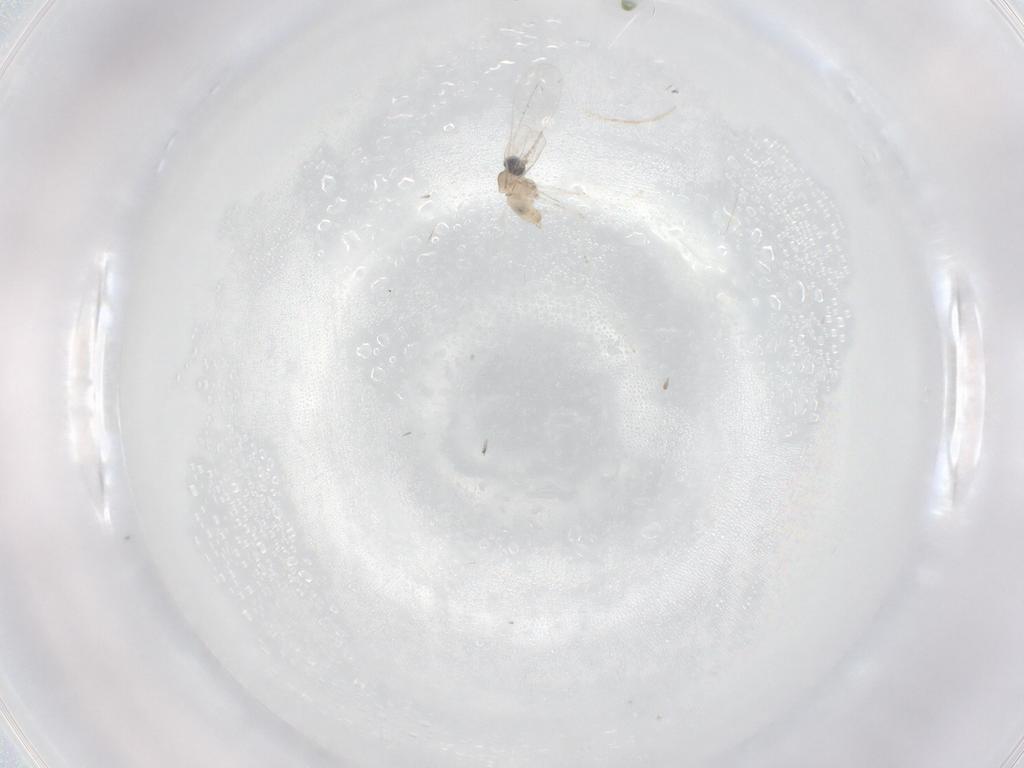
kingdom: Animalia
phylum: Arthropoda
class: Insecta
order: Diptera
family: Cecidomyiidae
